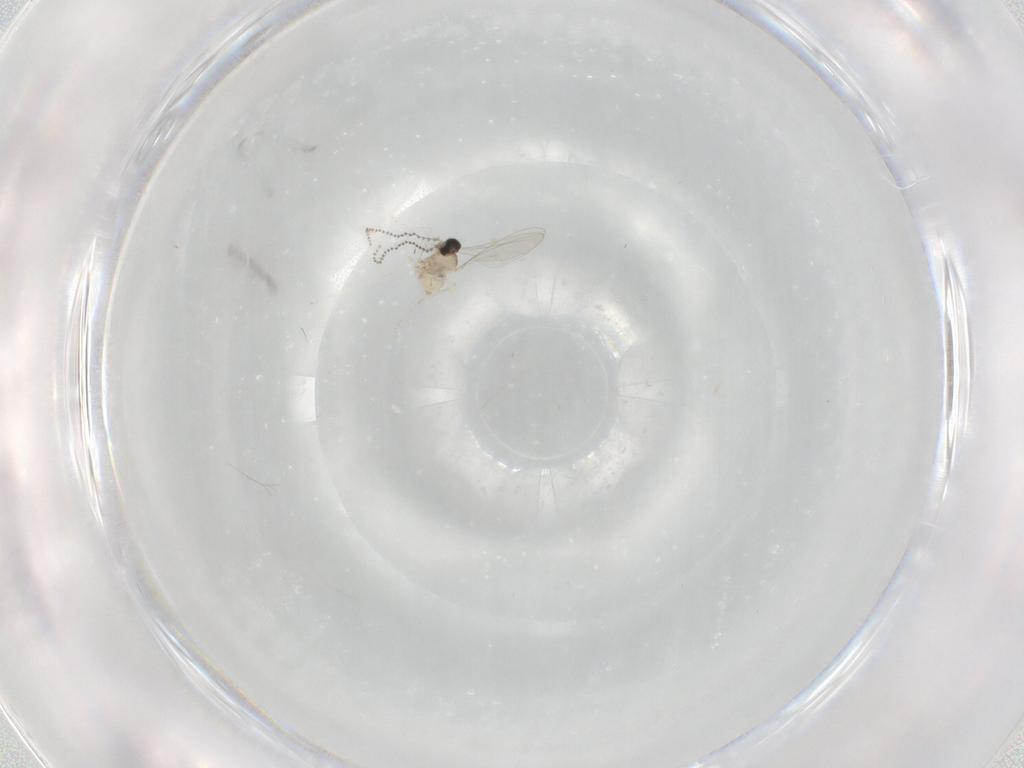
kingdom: Animalia
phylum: Arthropoda
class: Insecta
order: Diptera
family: Cecidomyiidae
